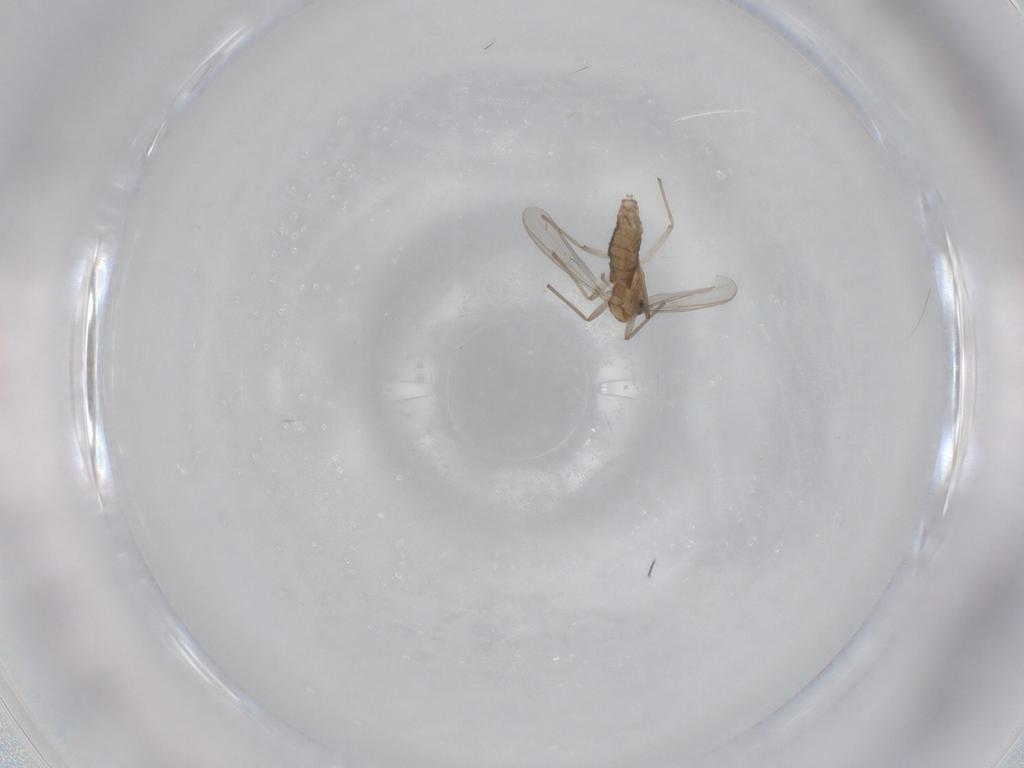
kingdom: Animalia
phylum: Arthropoda
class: Insecta
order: Diptera
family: Chironomidae
